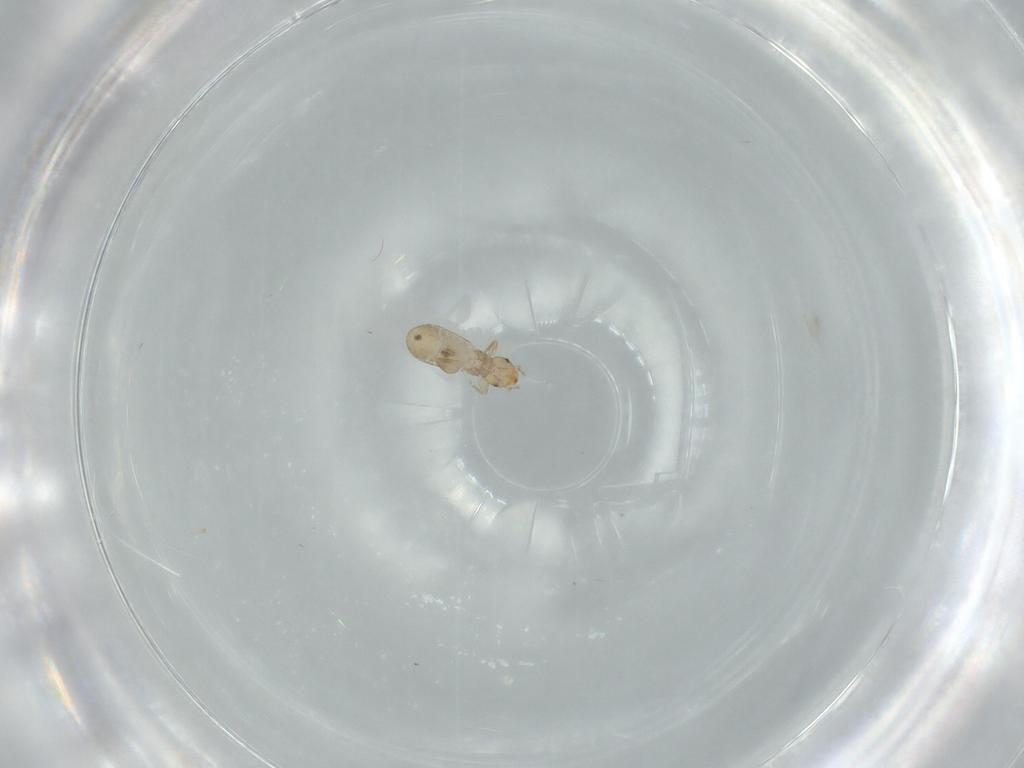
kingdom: Animalia
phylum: Arthropoda
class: Insecta
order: Psocodea
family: Liposcelididae
